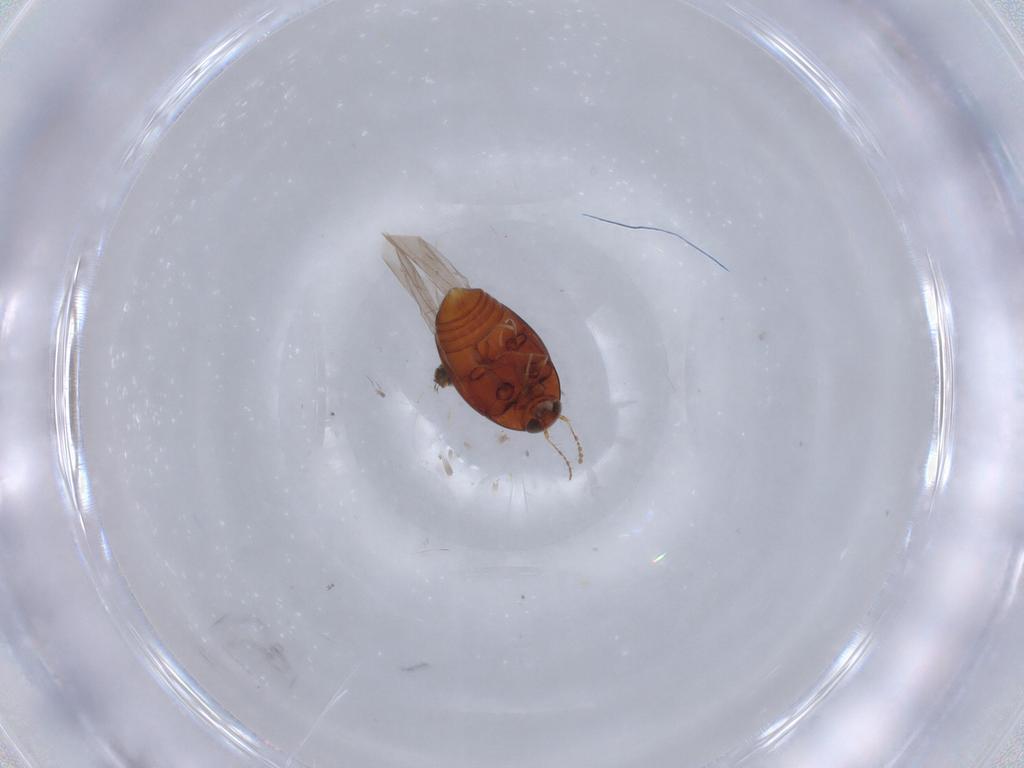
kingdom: Animalia
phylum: Arthropoda
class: Insecta
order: Coleoptera
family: Staphylinidae
